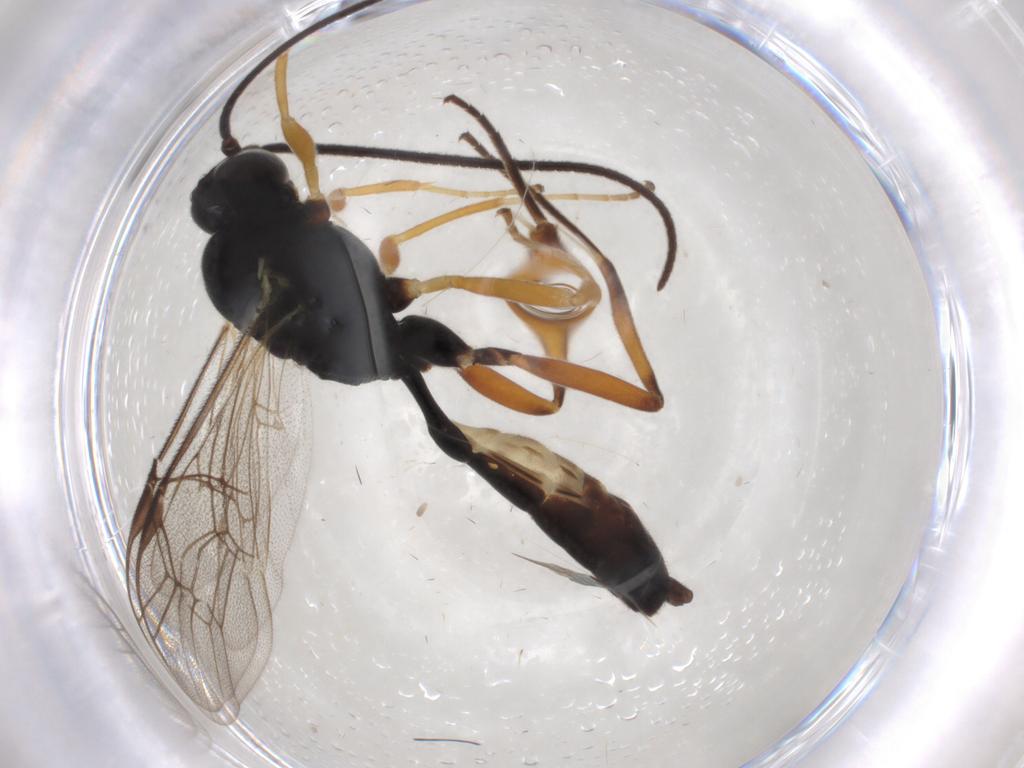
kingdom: Animalia
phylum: Arthropoda
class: Insecta
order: Hymenoptera
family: Ichneumonidae
